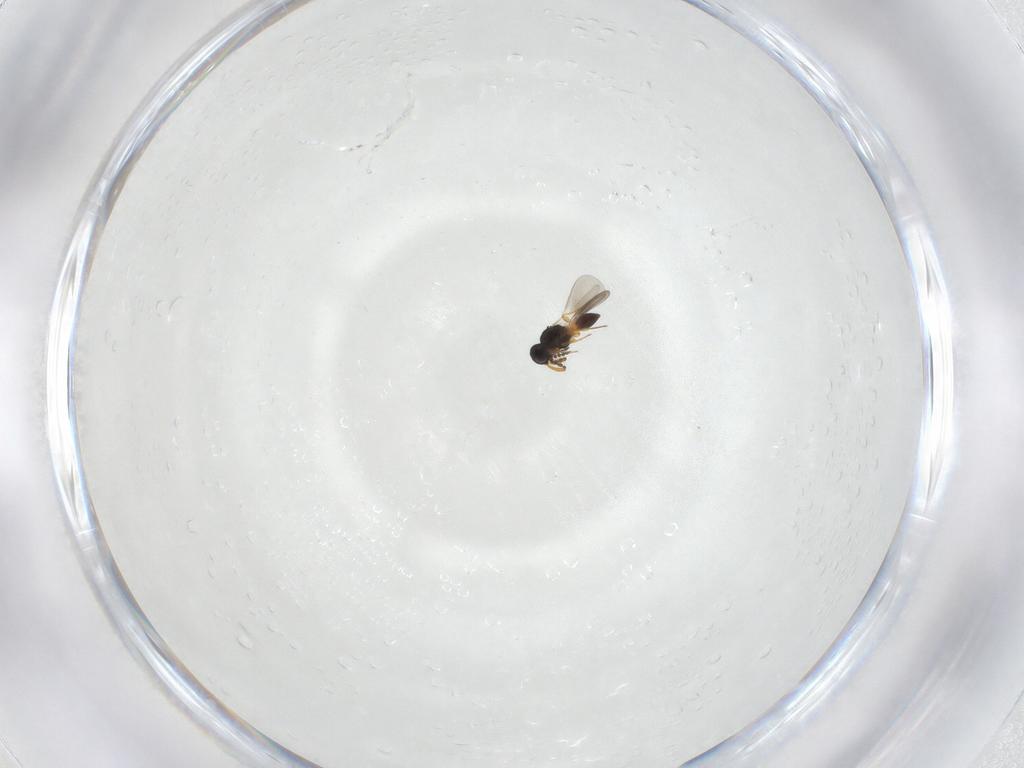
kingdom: Animalia
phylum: Arthropoda
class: Insecta
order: Hymenoptera
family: Platygastridae
